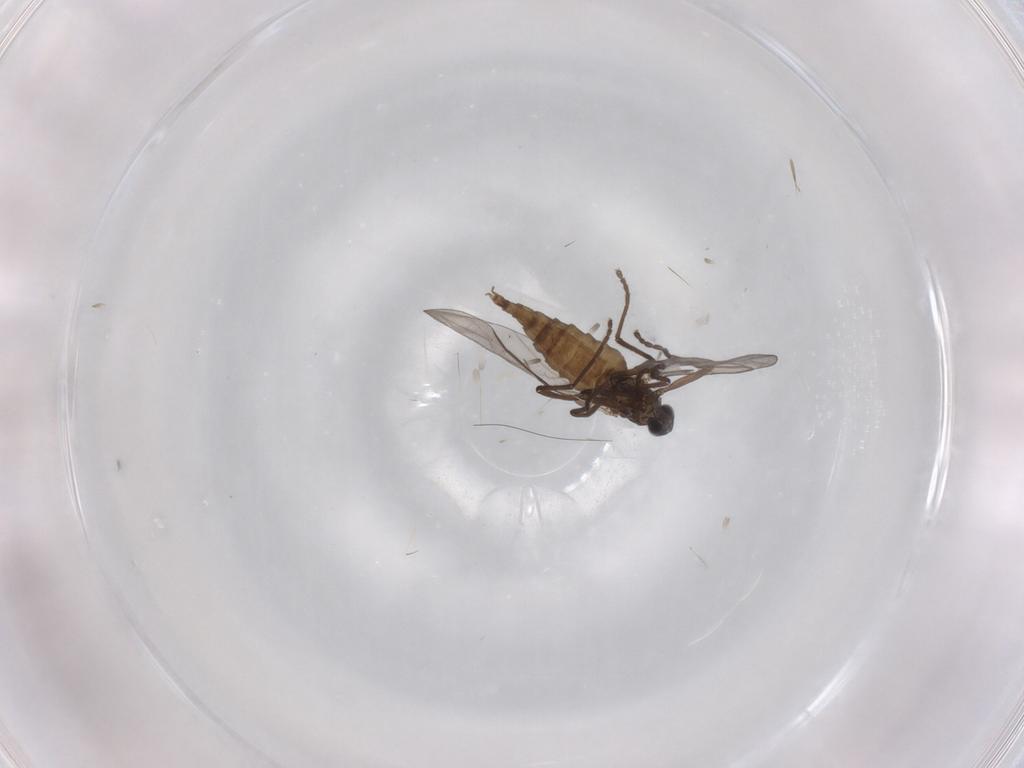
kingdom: Animalia
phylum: Arthropoda
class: Insecta
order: Diptera
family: Cecidomyiidae
